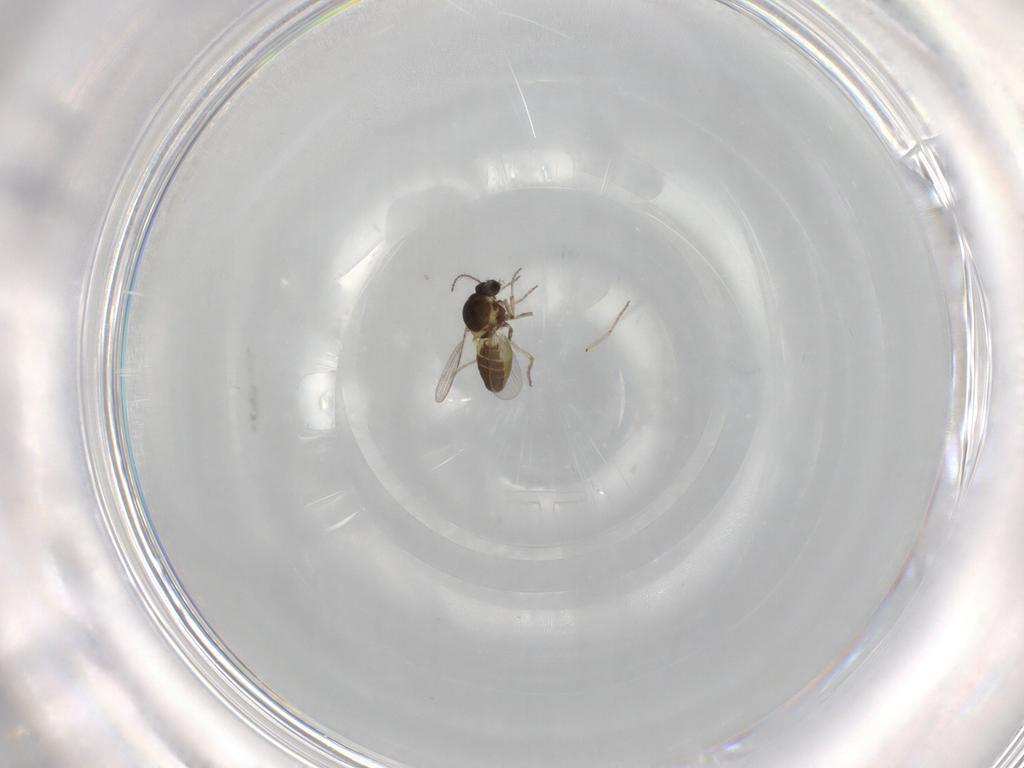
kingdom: Animalia
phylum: Arthropoda
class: Insecta
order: Diptera
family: Ceratopogonidae
